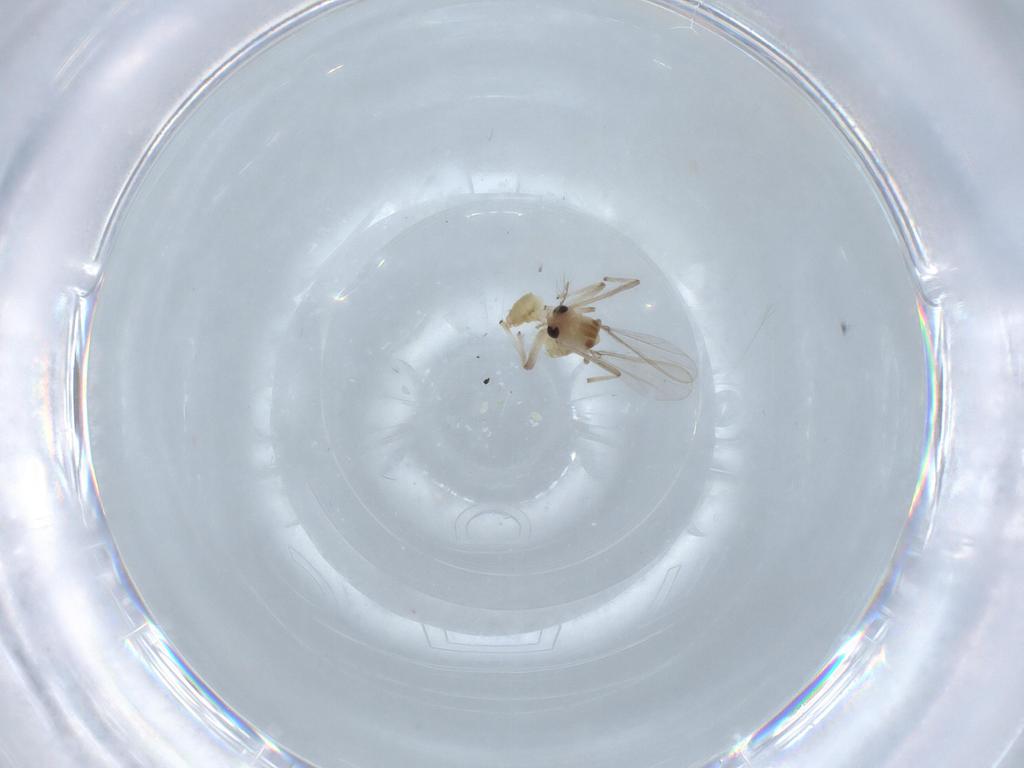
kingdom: Animalia
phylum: Arthropoda
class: Insecta
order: Diptera
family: Chironomidae
